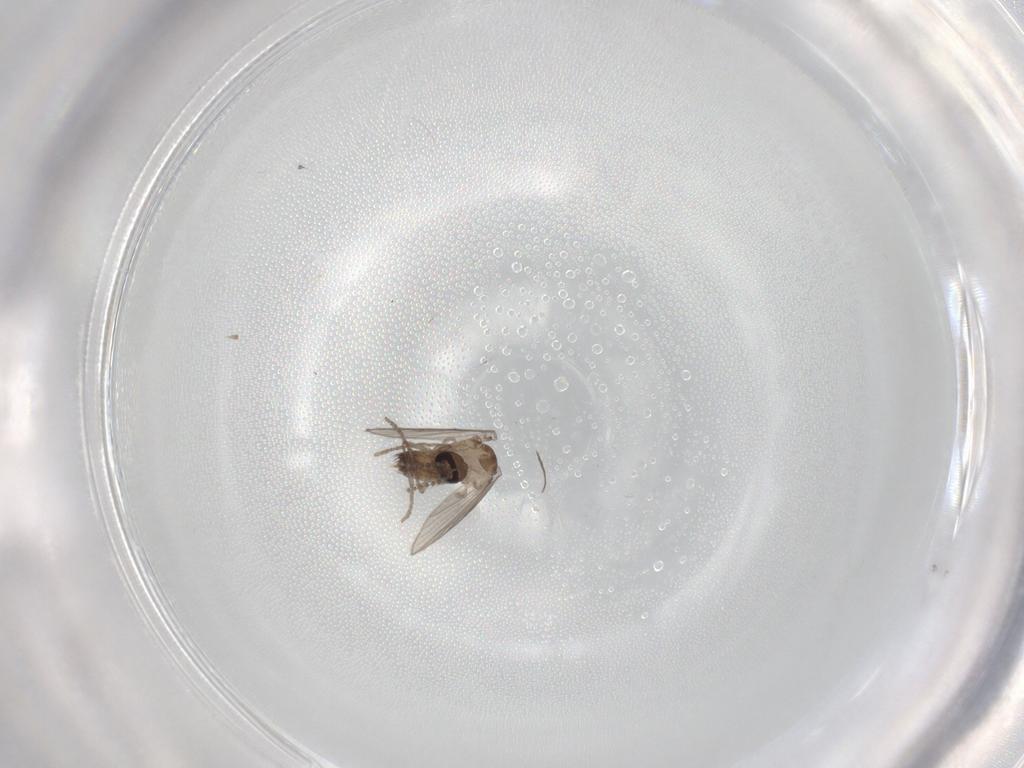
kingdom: Animalia
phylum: Arthropoda
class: Insecta
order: Diptera
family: Psychodidae
